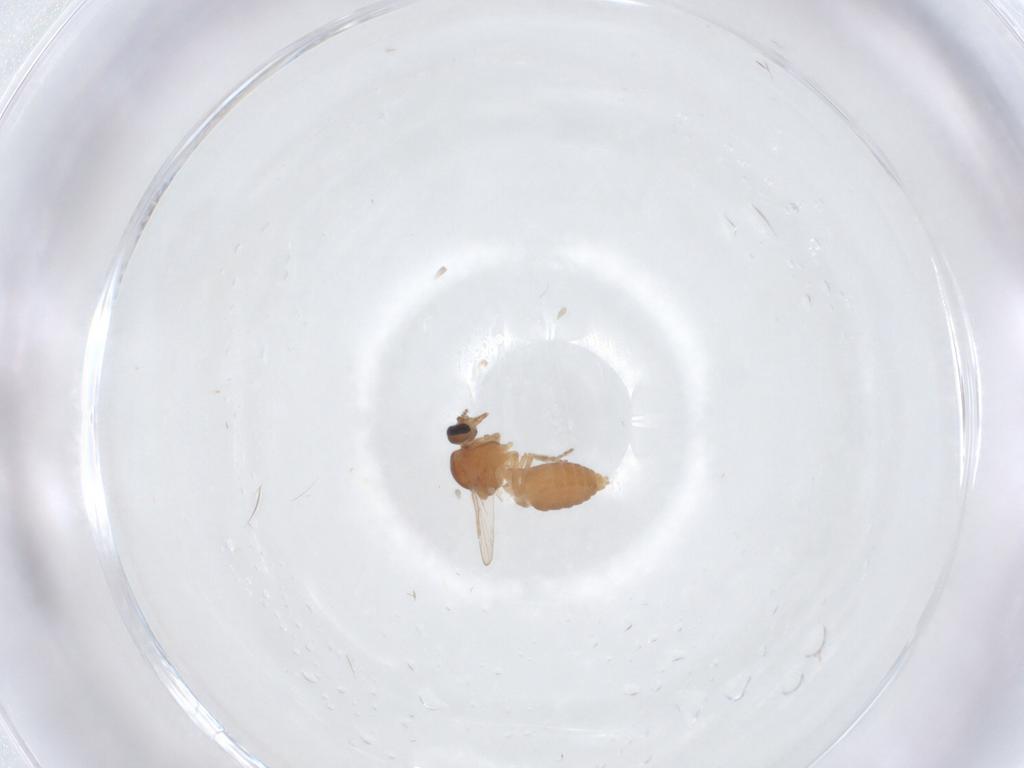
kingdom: Animalia
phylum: Arthropoda
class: Insecta
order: Diptera
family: Ceratopogonidae
